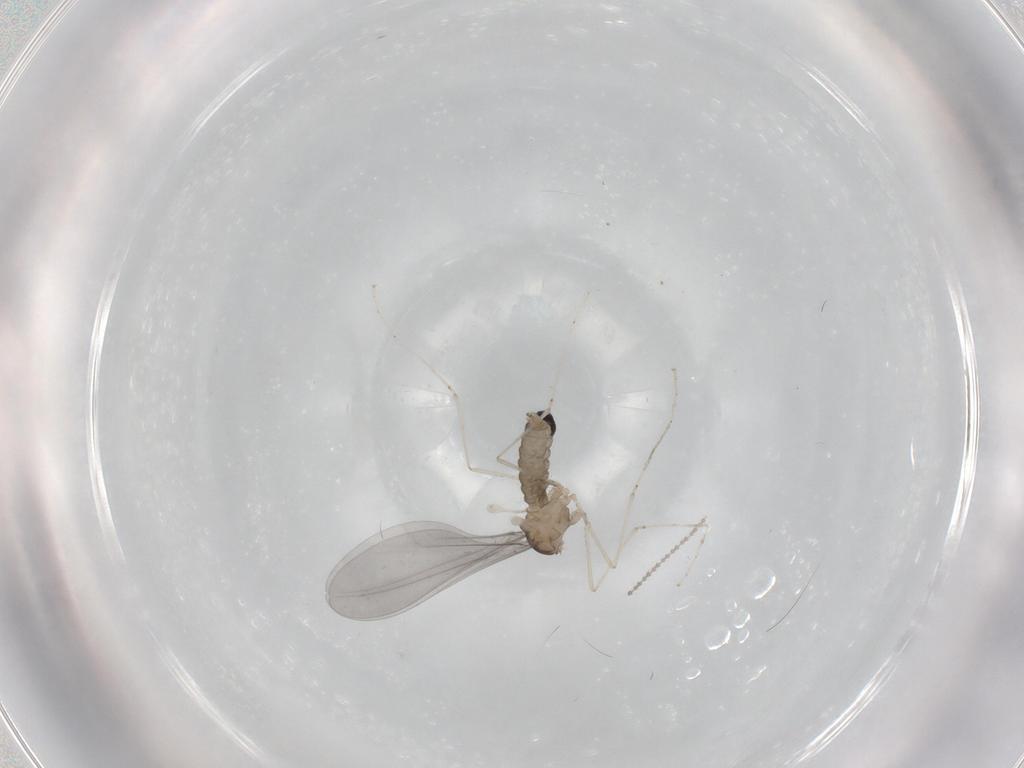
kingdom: Animalia
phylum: Arthropoda
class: Insecta
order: Diptera
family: Cecidomyiidae
